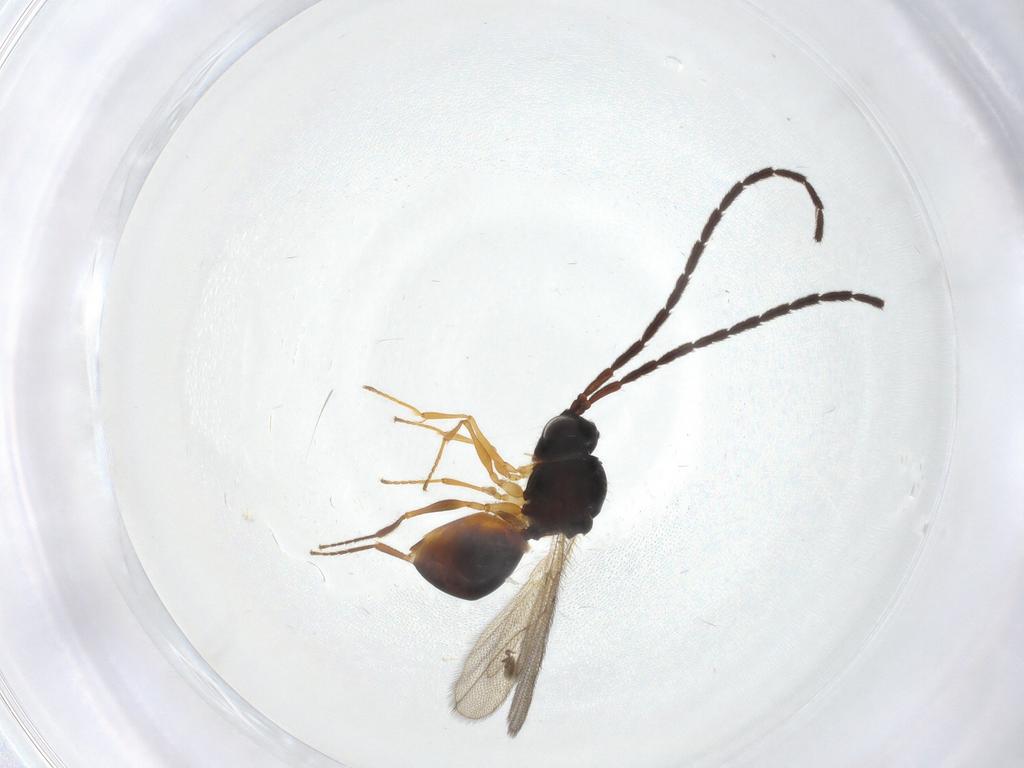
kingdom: Animalia
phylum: Arthropoda
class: Insecta
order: Hymenoptera
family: Figitidae
